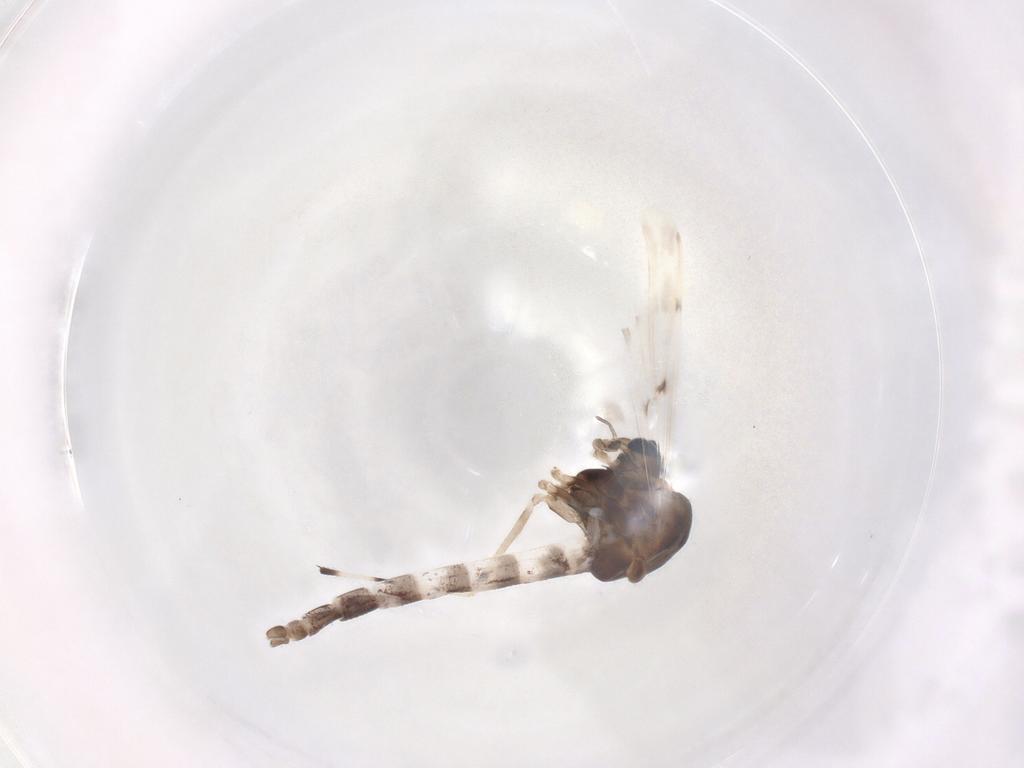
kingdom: Animalia
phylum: Arthropoda
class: Insecta
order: Diptera
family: Chironomidae
